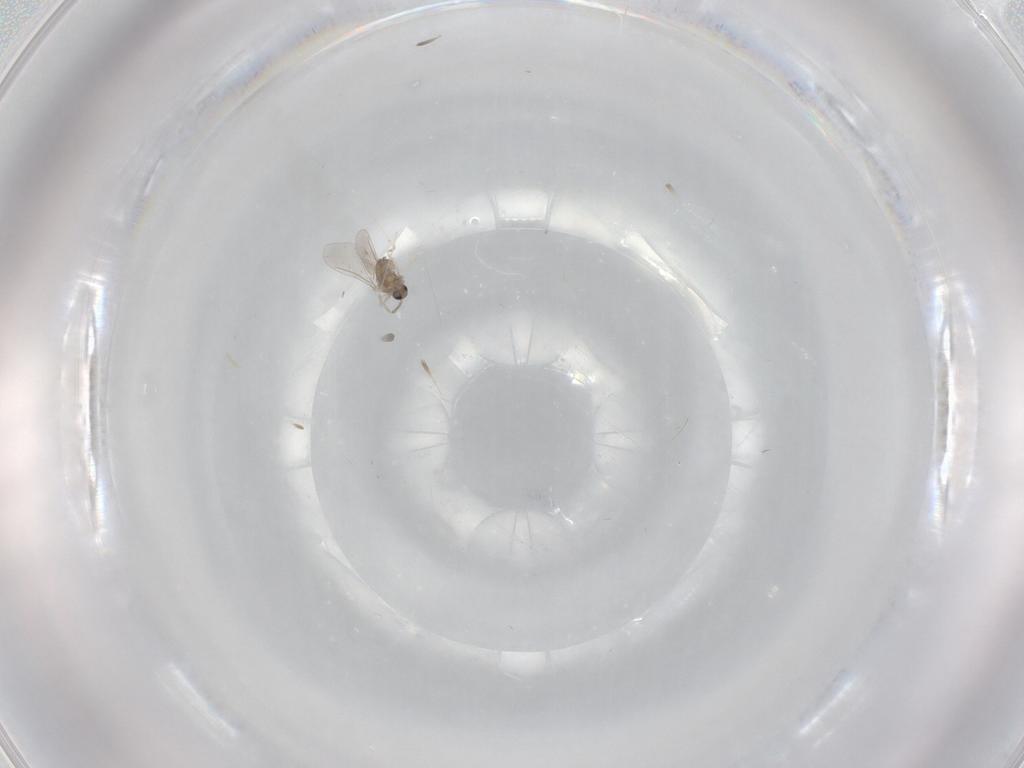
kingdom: Animalia
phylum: Arthropoda
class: Insecta
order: Diptera
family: Cecidomyiidae
